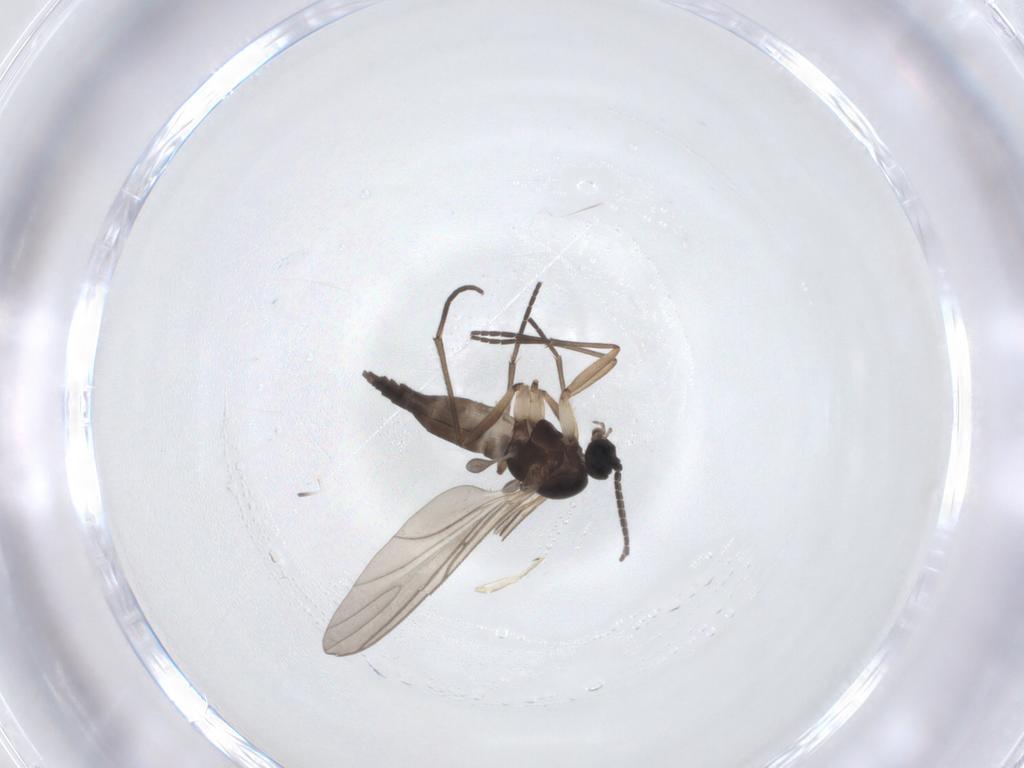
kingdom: Animalia
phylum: Arthropoda
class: Insecta
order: Diptera
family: Sciaridae
